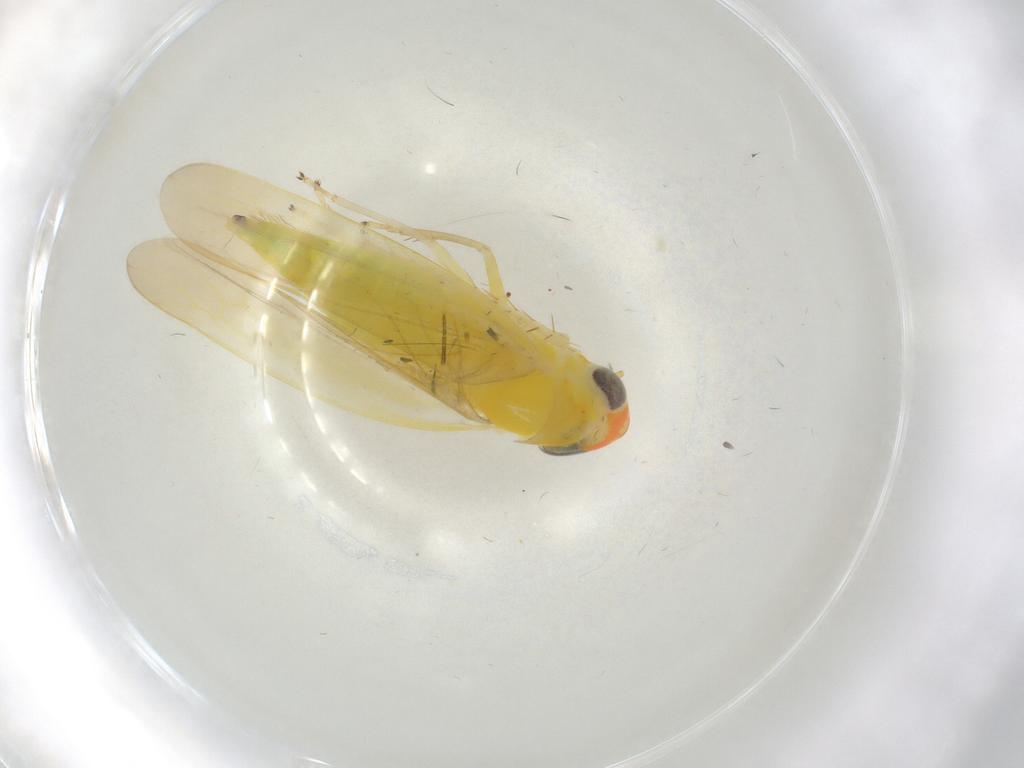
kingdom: Animalia
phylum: Arthropoda
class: Insecta
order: Hemiptera
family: Cicadellidae
